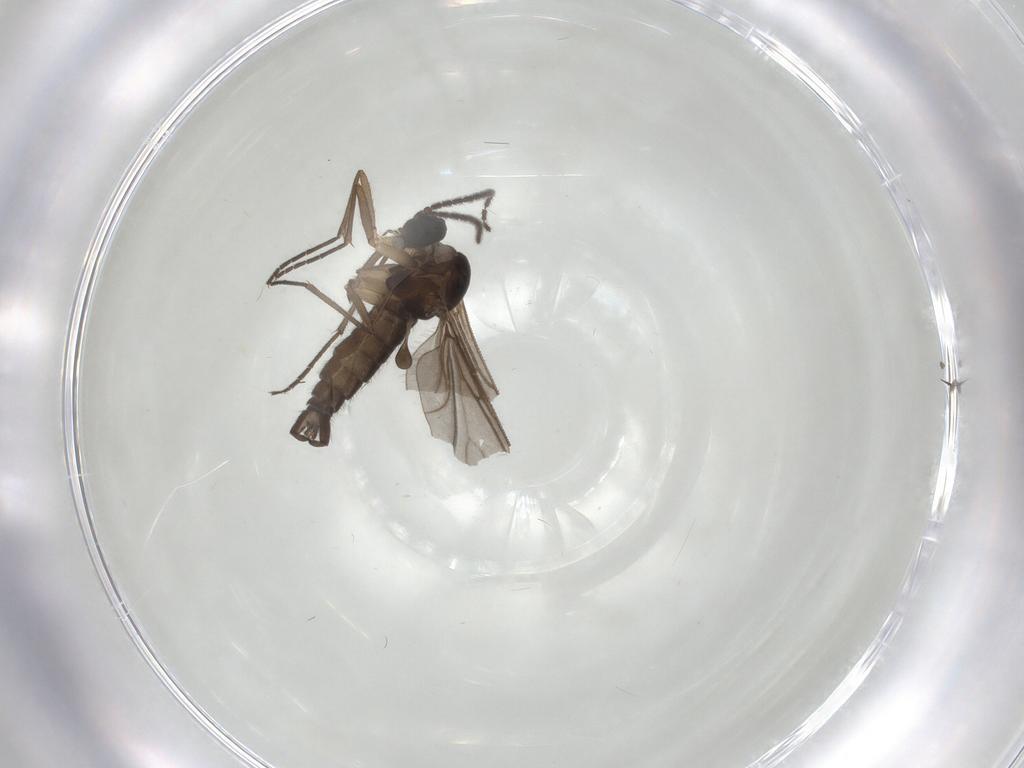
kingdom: Animalia
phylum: Arthropoda
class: Insecta
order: Diptera
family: Sciaridae
